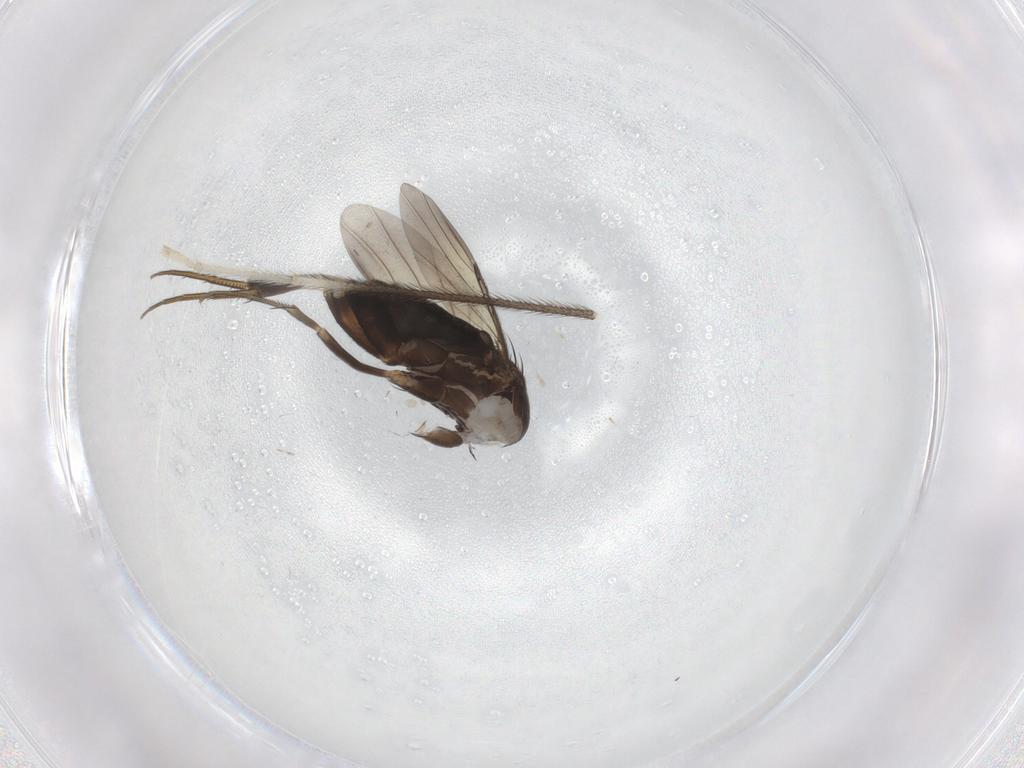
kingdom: Animalia
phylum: Arthropoda
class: Insecta
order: Diptera
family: Phoridae
